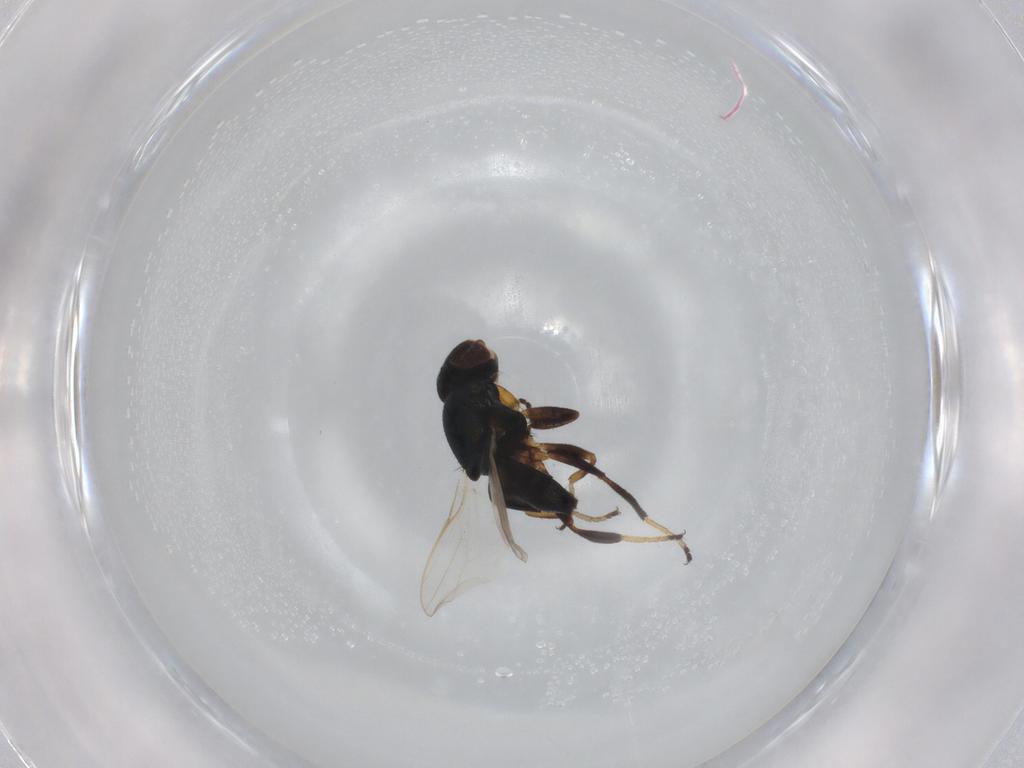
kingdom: Animalia
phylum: Arthropoda
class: Insecta
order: Diptera
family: Chloropidae
